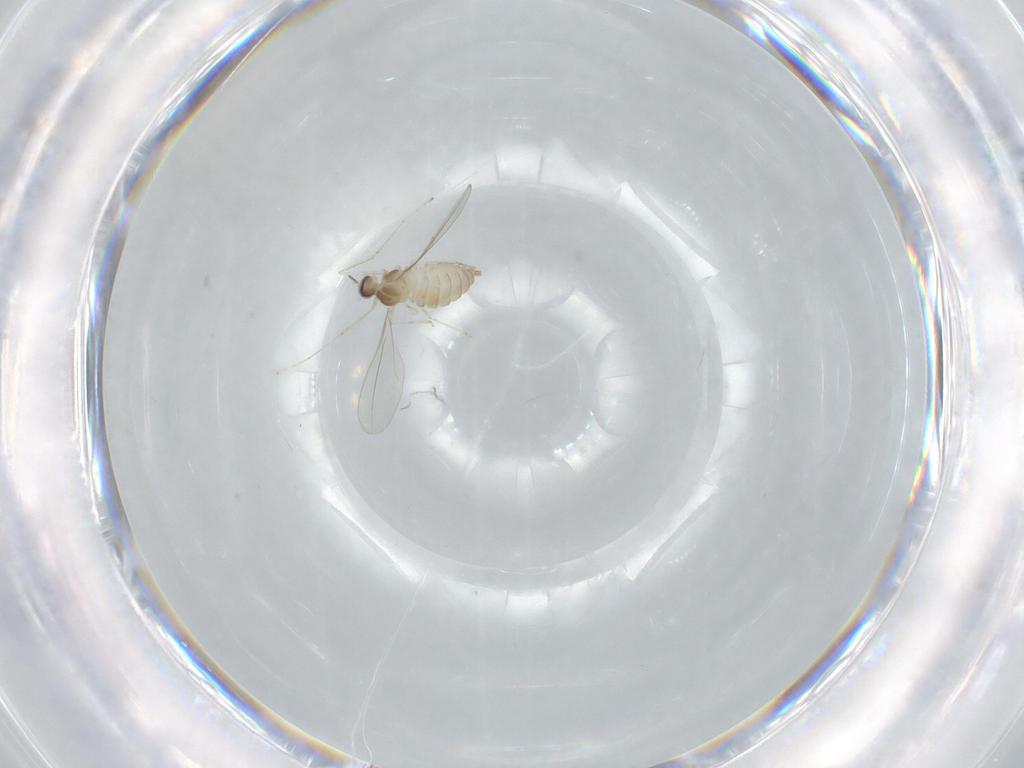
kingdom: Animalia
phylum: Arthropoda
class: Insecta
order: Diptera
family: Cecidomyiidae
